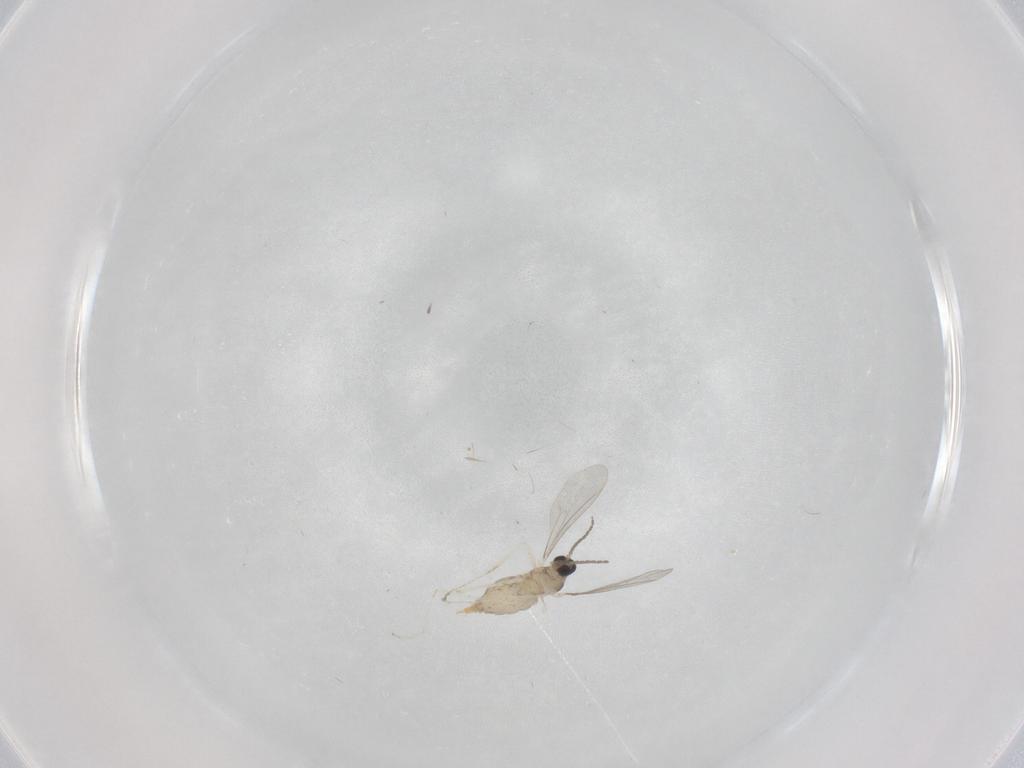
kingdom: Animalia
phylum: Arthropoda
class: Insecta
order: Diptera
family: Cecidomyiidae
